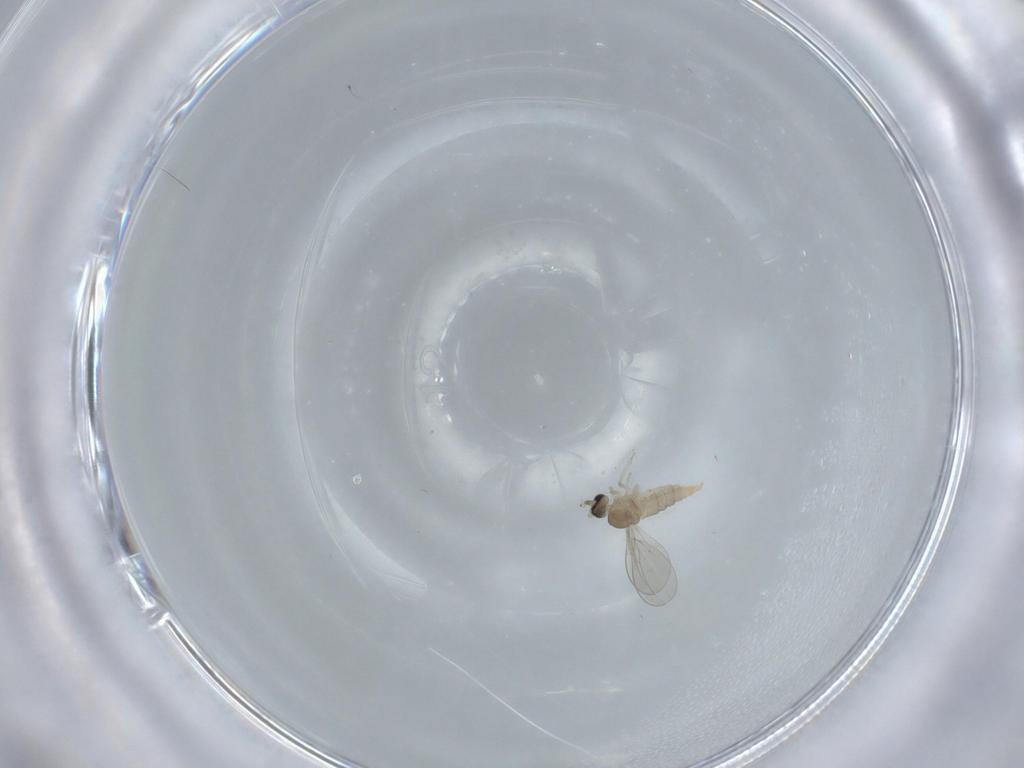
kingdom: Animalia
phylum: Arthropoda
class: Insecta
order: Diptera
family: Cecidomyiidae
